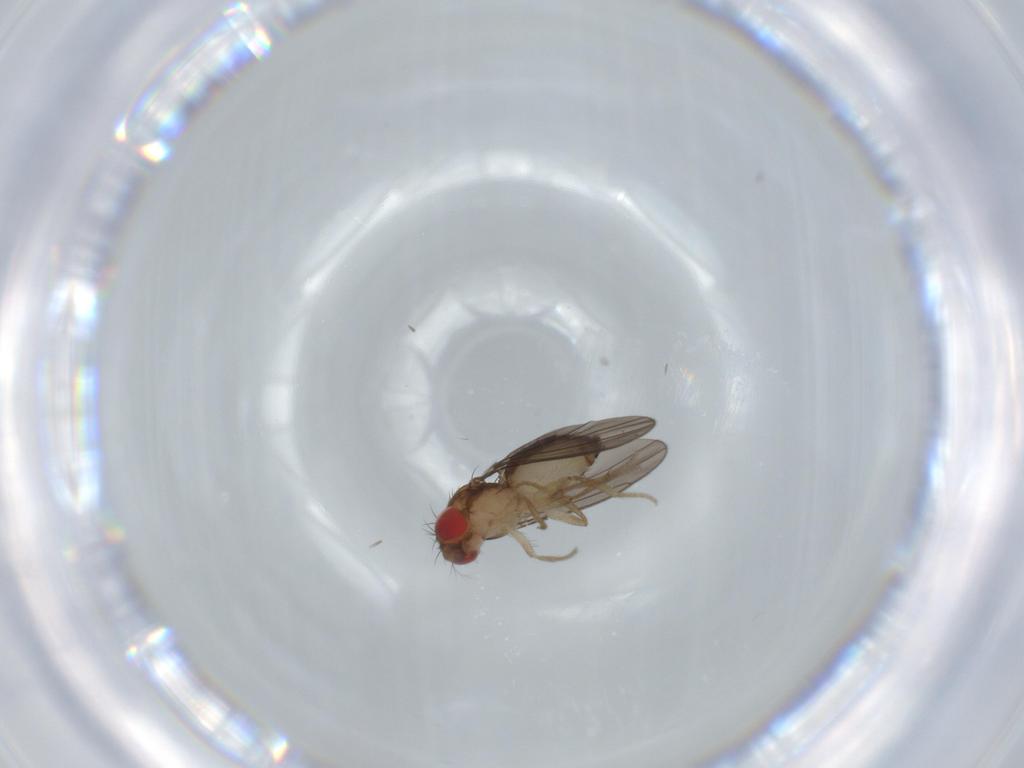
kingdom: Animalia
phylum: Arthropoda
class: Insecta
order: Diptera
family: Drosophilidae
